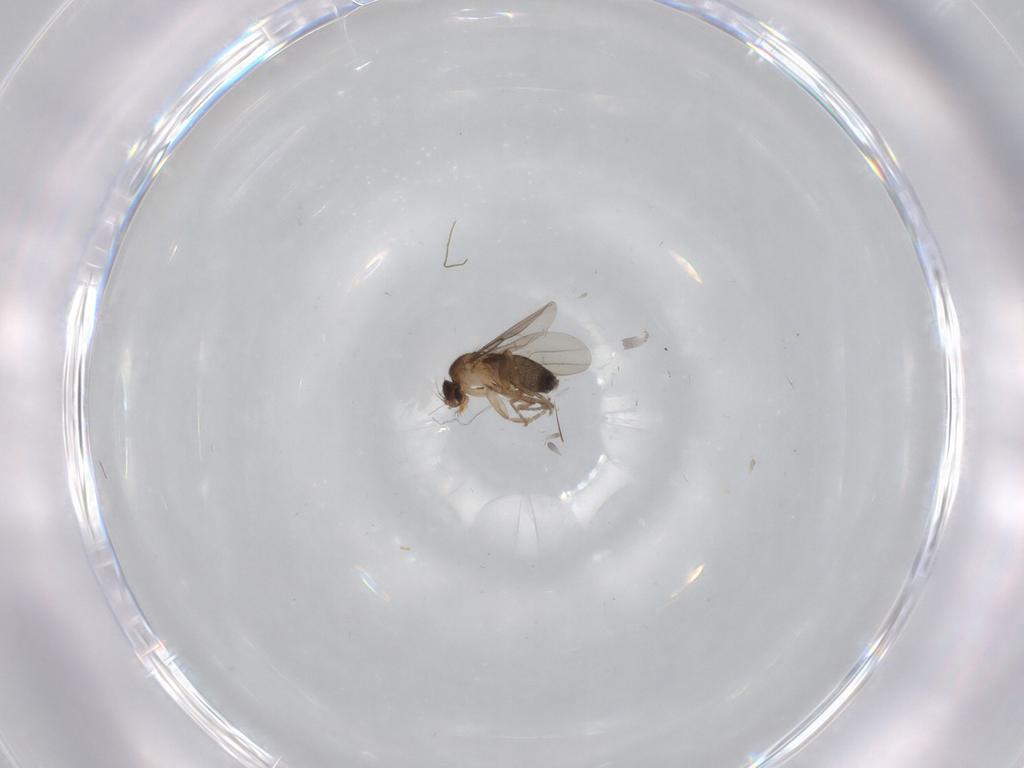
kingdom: Animalia
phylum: Arthropoda
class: Insecta
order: Diptera
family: Phoridae
